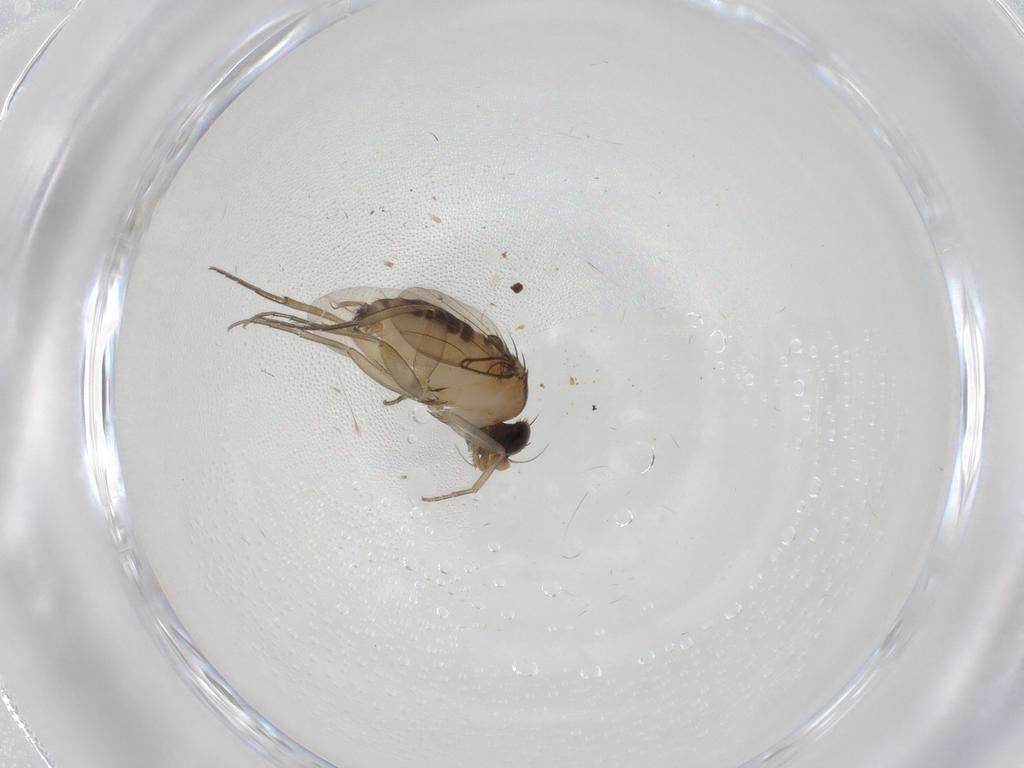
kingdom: Animalia
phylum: Arthropoda
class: Insecta
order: Diptera
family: Phoridae
